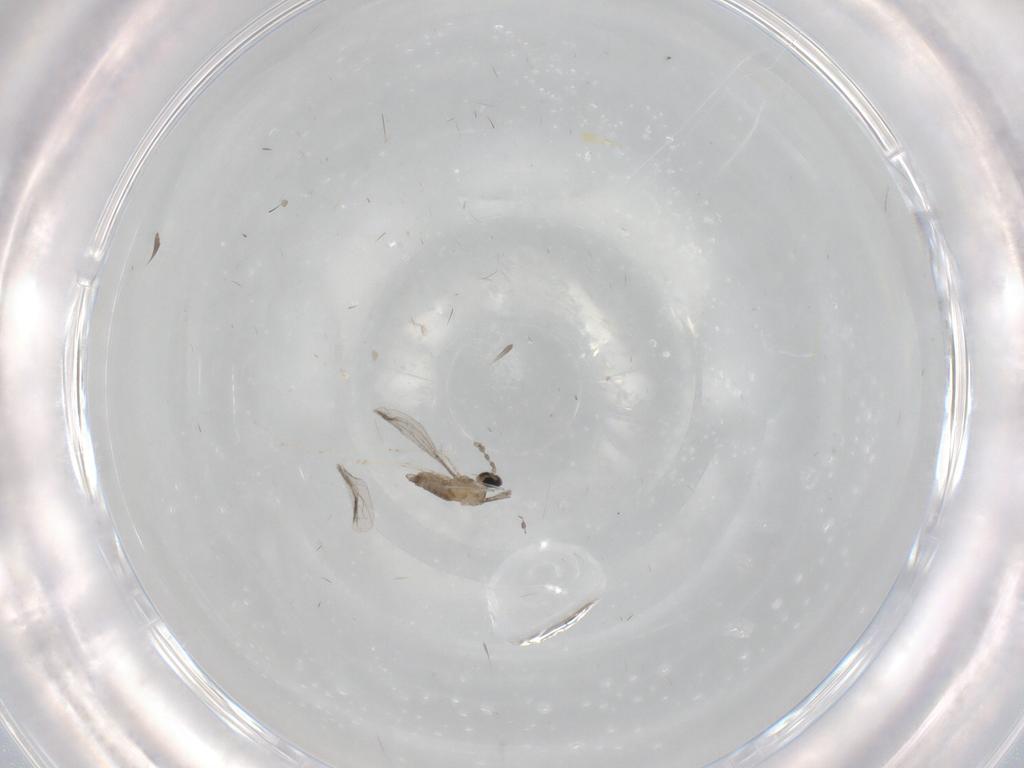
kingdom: Animalia
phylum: Arthropoda
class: Insecta
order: Diptera
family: Cecidomyiidae
